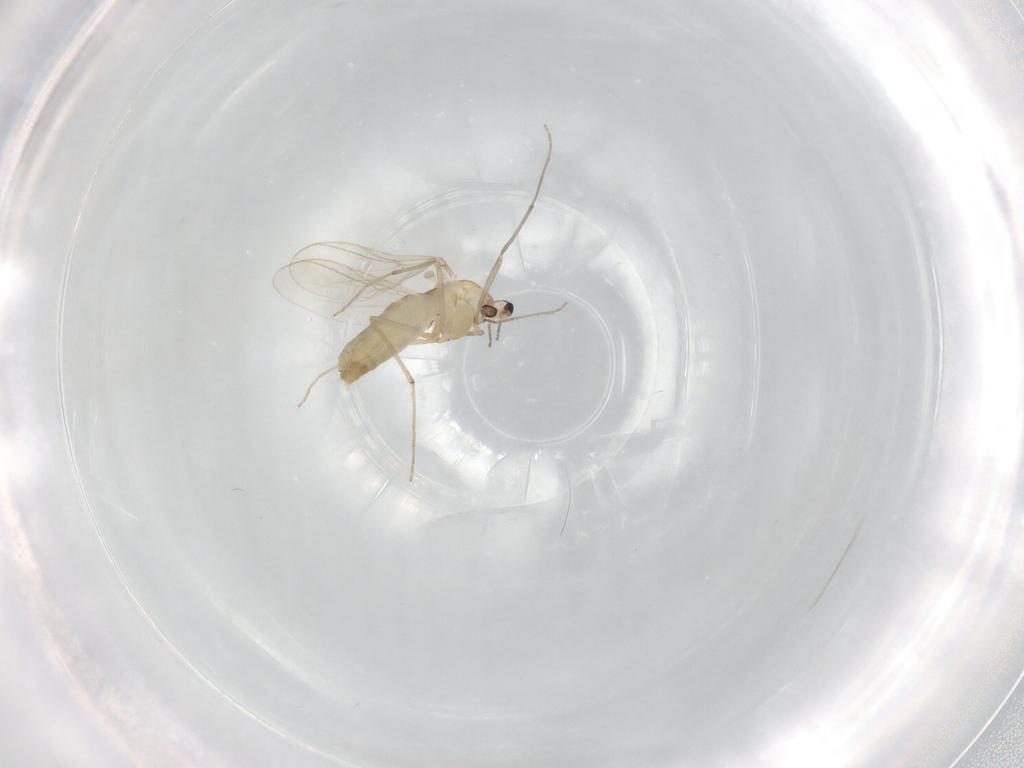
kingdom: Animalia
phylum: Arthropoda
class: Insecta
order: Diptera
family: Chironomidae
